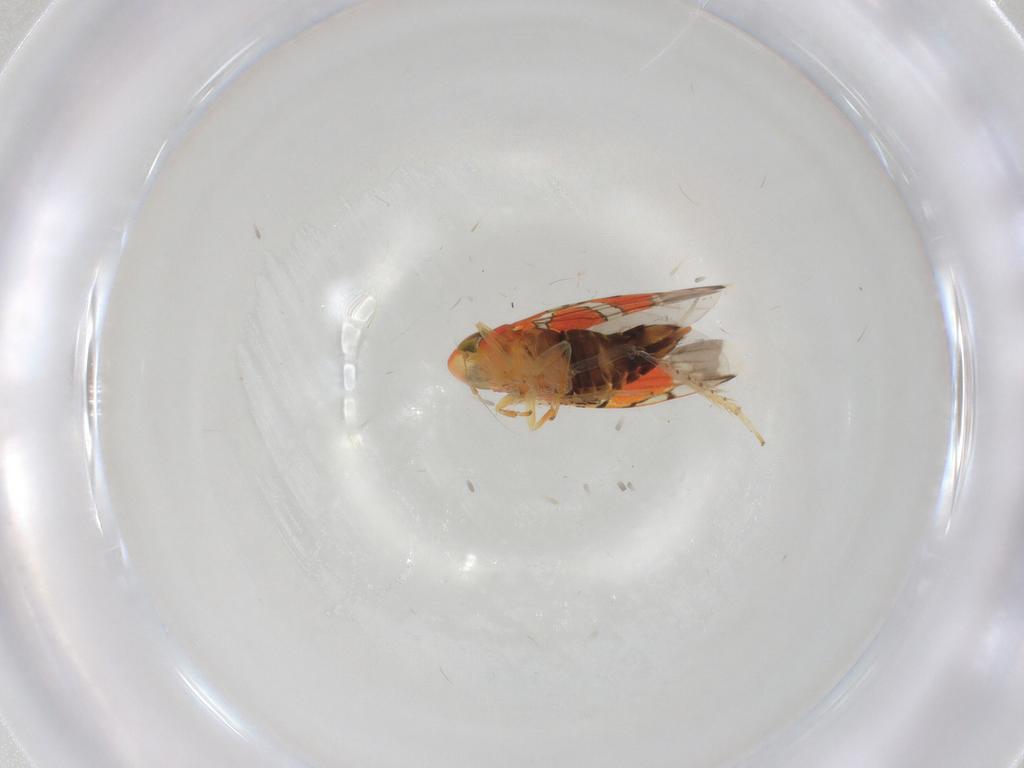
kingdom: Animalia
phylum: Arthropoda
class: Insecta
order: Hemiptera
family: Cicadellidae
